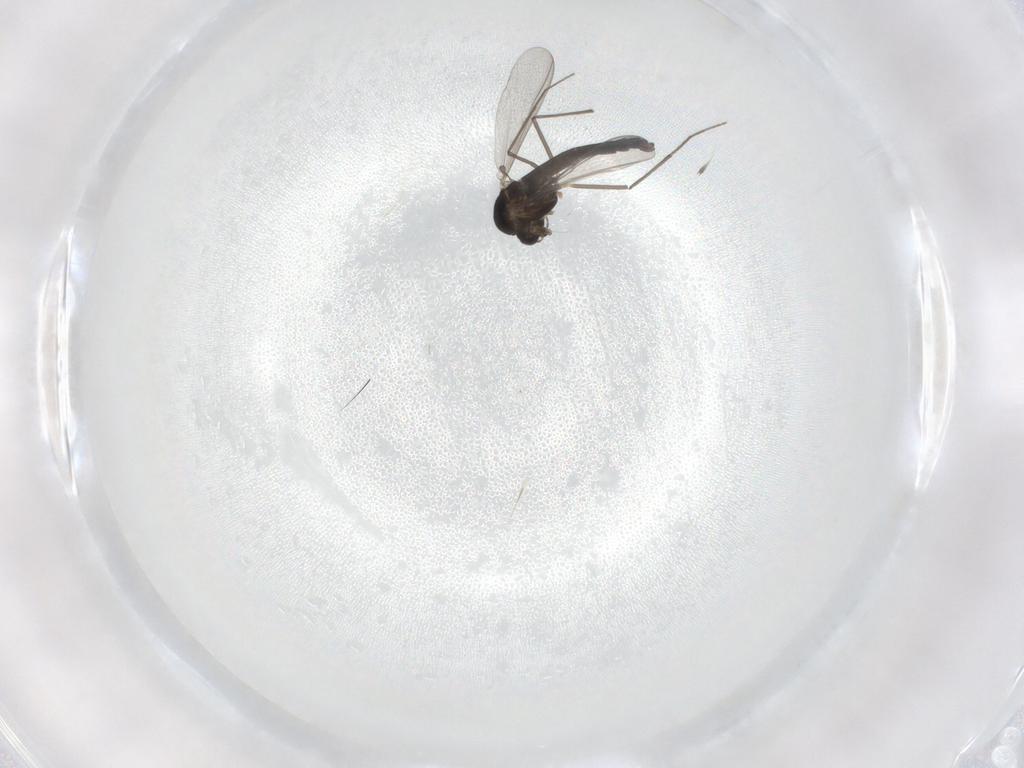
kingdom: Animalia
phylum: Arthropoda
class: Insecta
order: Diptera
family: Chironomidae
